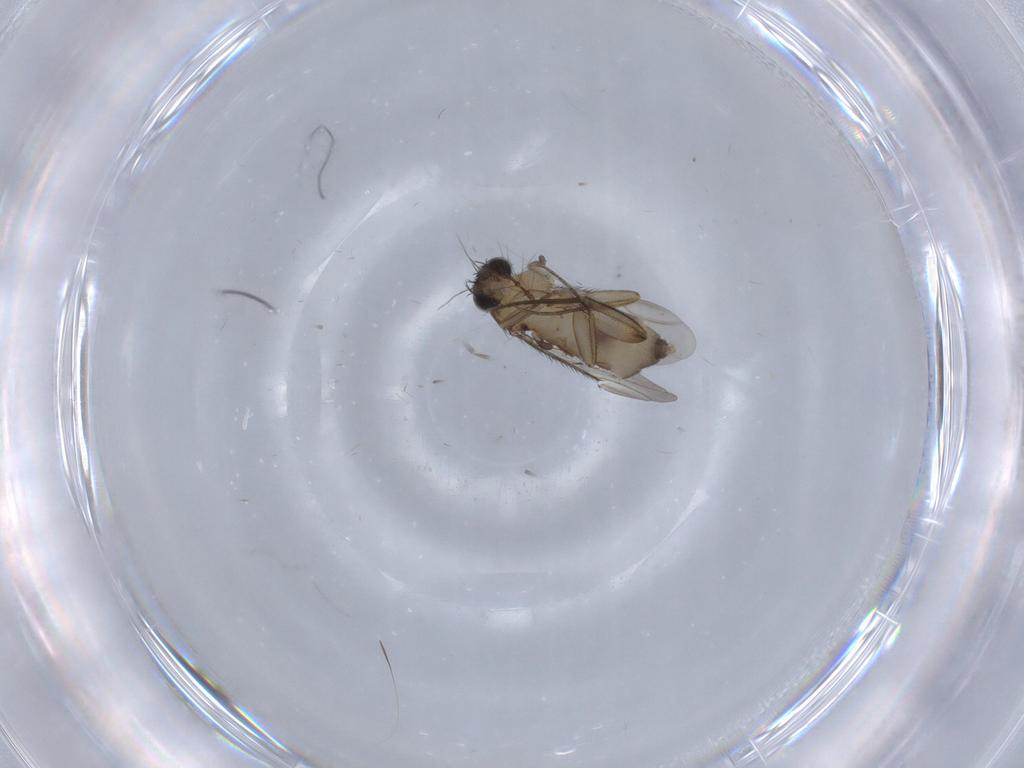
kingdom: Animalia
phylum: Arthropoda
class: Insecta
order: Diptera
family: Phoridae
